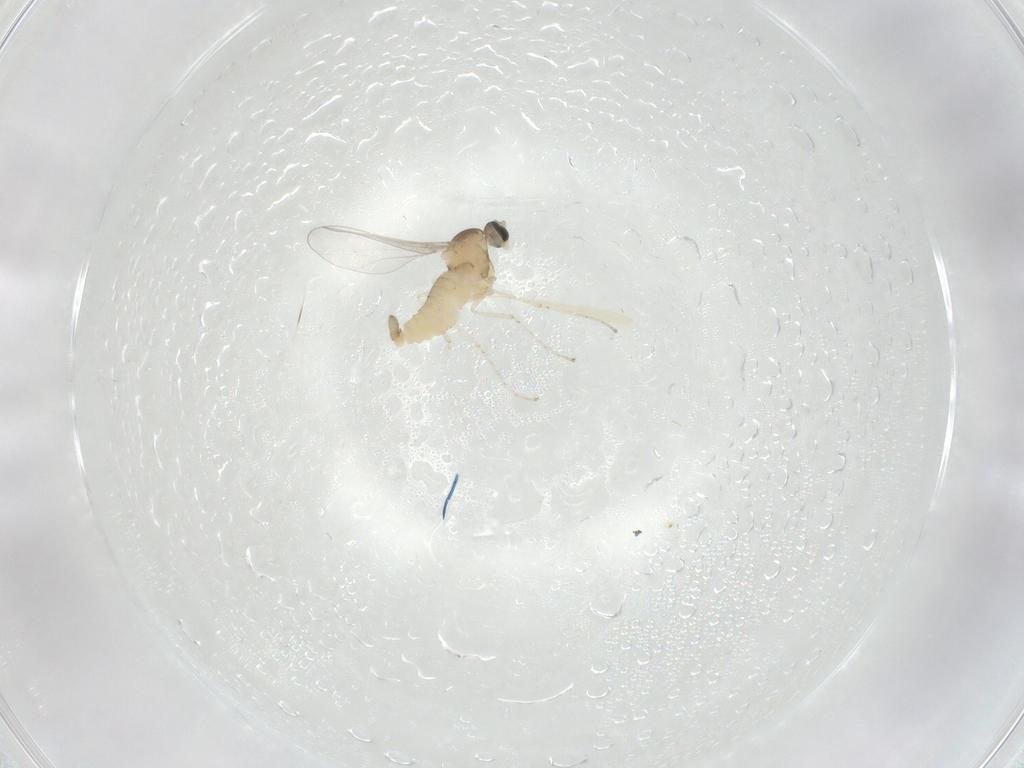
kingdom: Animalia
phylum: Arthropoda
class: Insecta
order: Diptera
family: Cecidomyiidae
